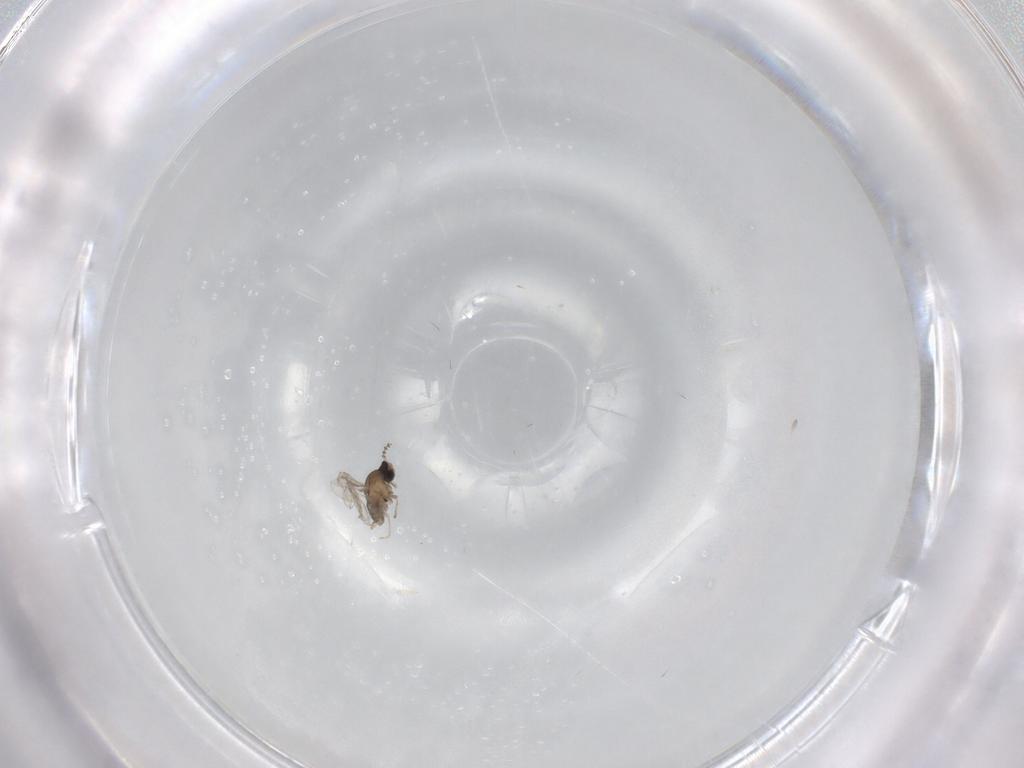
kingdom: Animalia
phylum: Arthropoda
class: Insecta
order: Diptera
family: Cecidomyiidae
